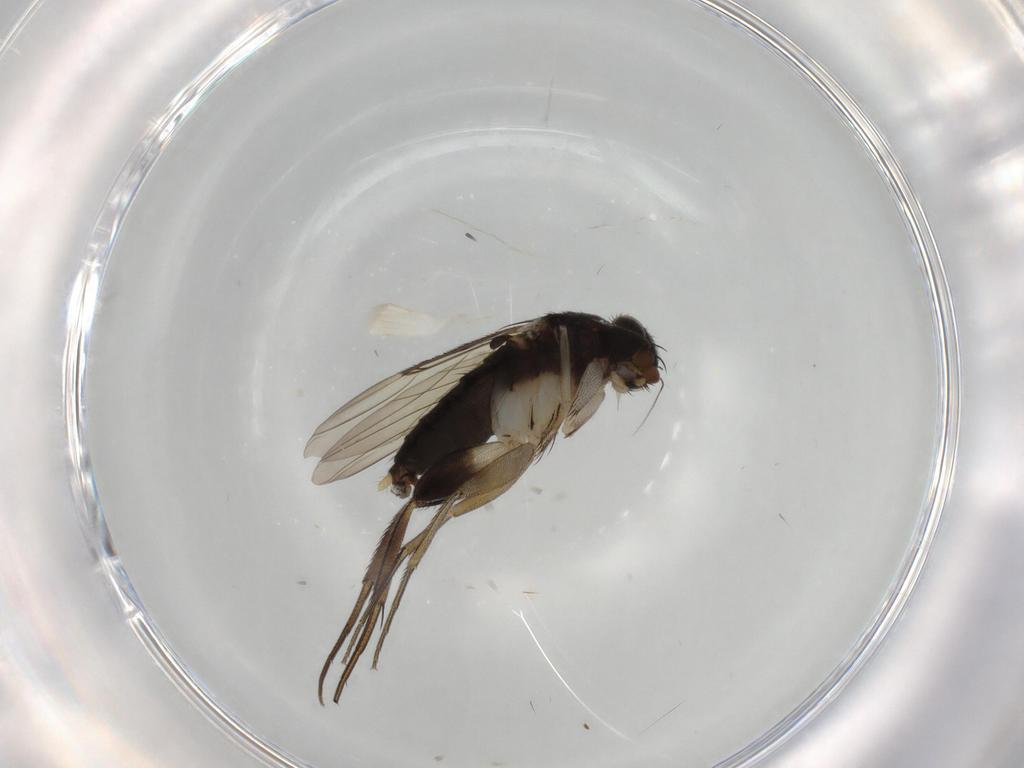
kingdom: Animalia
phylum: Arthropoda
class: Insecta
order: Diptera
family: Phoridae
